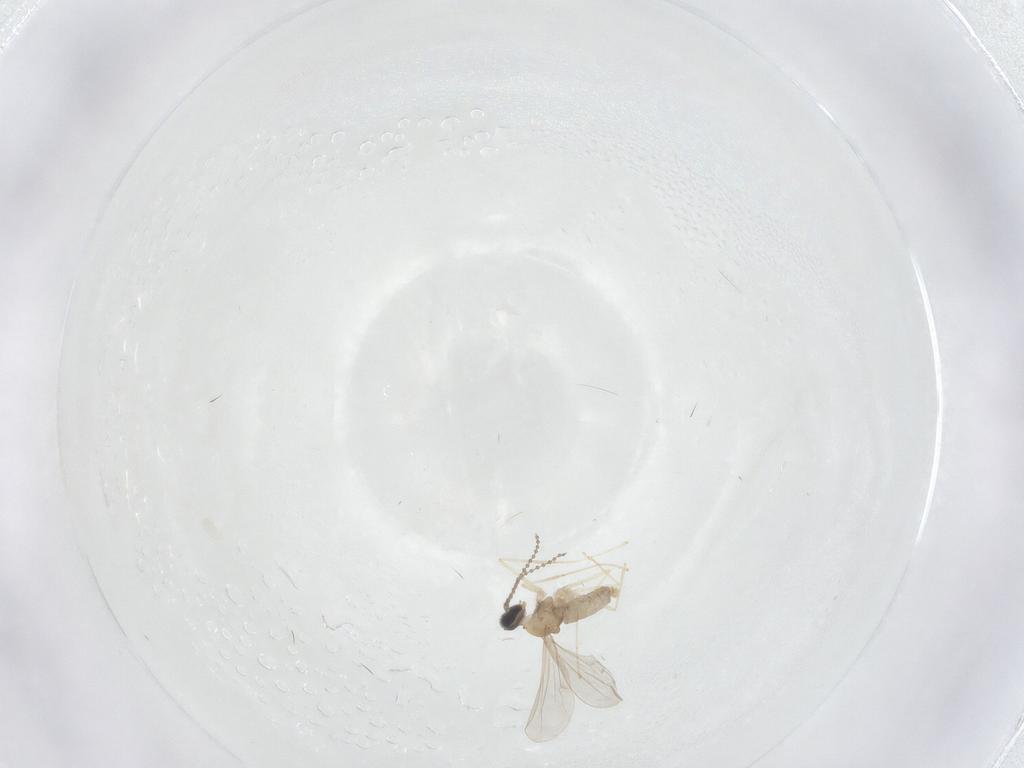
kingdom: Animalia
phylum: Arthropoda
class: Insecta
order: Diptera
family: Cecidomyiidae
